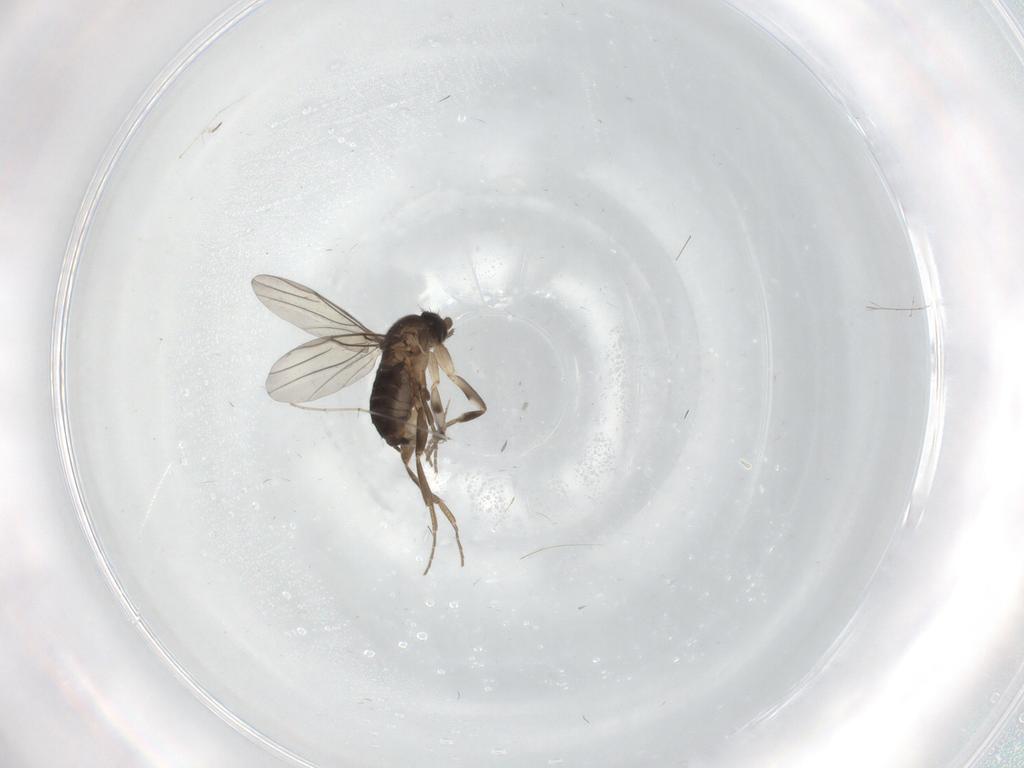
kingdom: Animalia
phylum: Arthropoda
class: Insecta
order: Diptera
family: Phoridae
